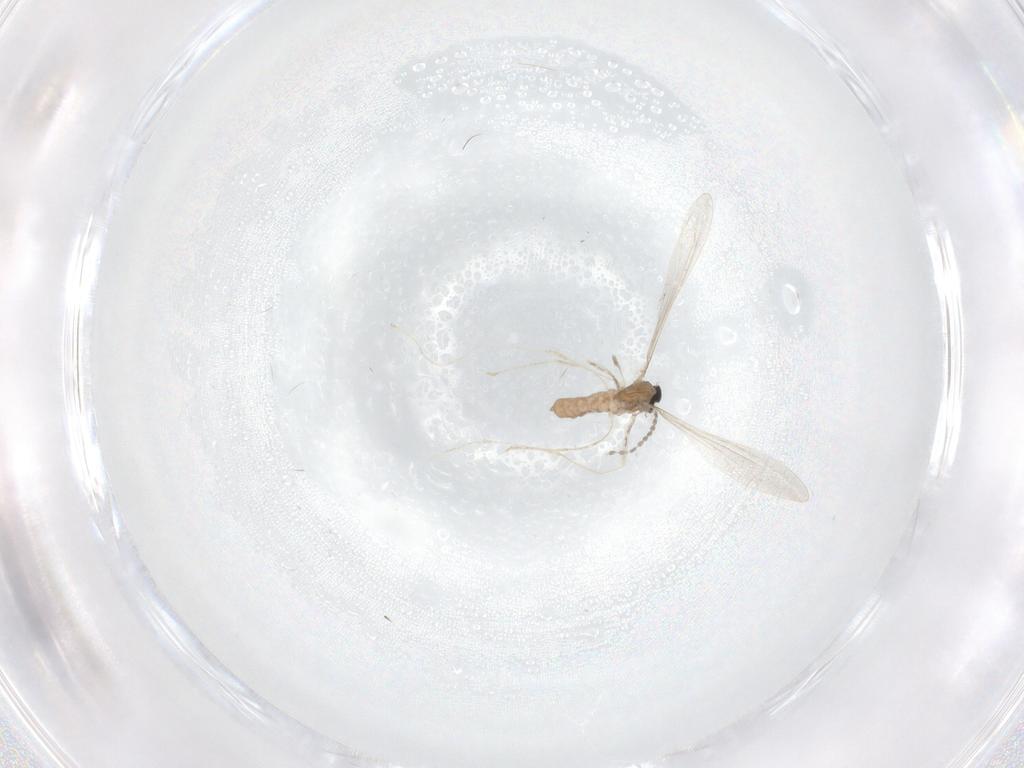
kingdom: Animalia
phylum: Arthropoda
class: Insecta
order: Diptera
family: Cecidomyiidae
